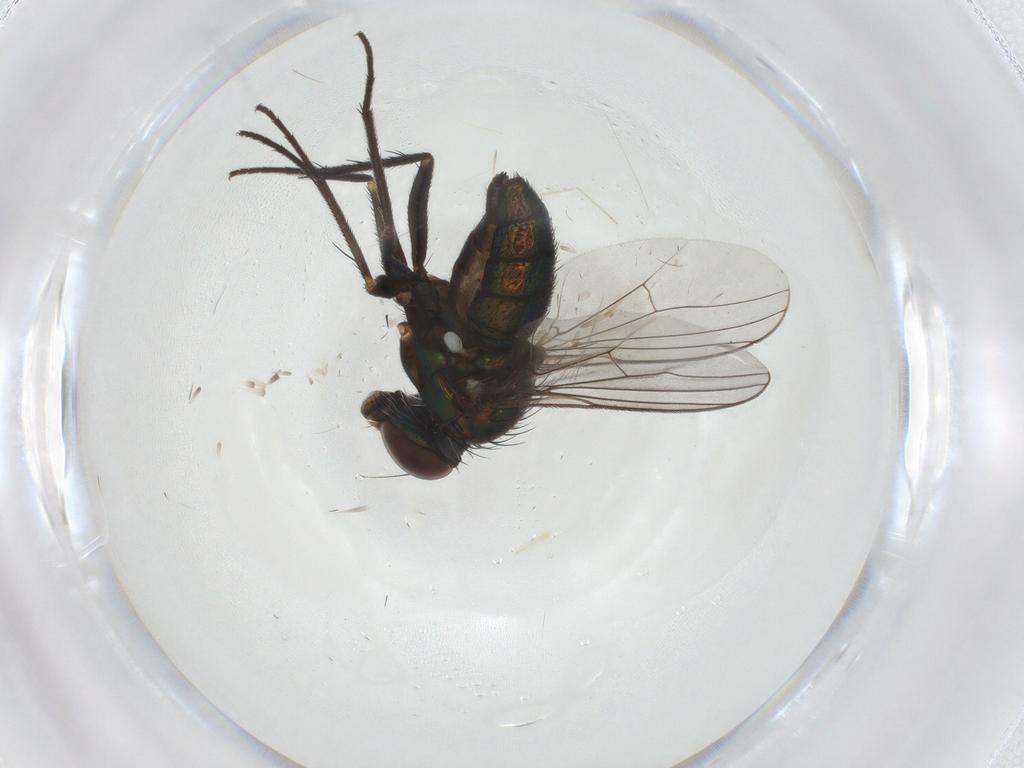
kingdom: Animalia
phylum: Arthropoda
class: Insecta
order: Diptera
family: Dolichopodidae
